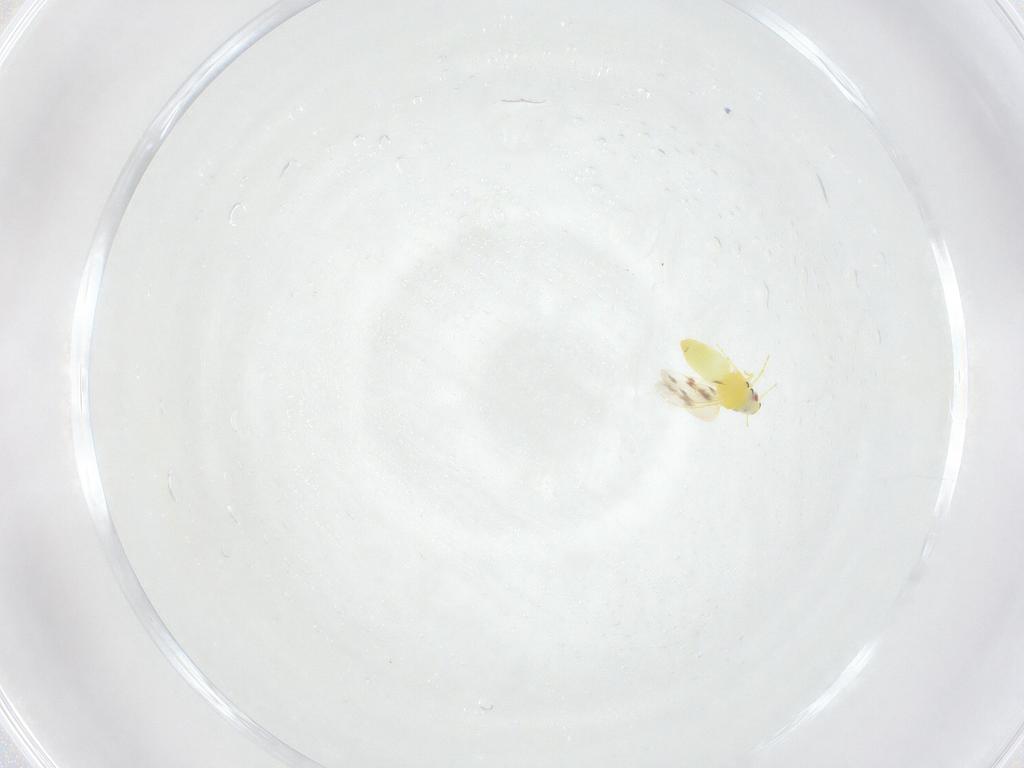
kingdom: Animalia
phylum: Arthropoda
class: Insecta
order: Hemiptera
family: Aleyrodidae
